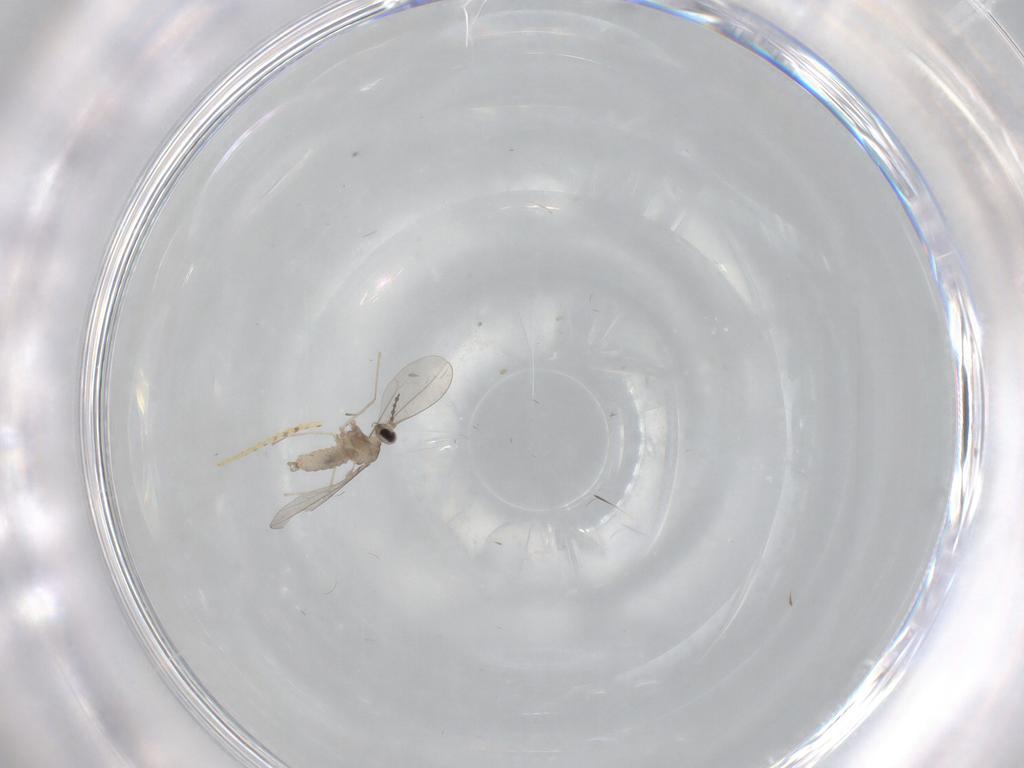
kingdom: Animalia
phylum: Arthropoda
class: Insecta
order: Diptera
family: Cecidomyiidae
